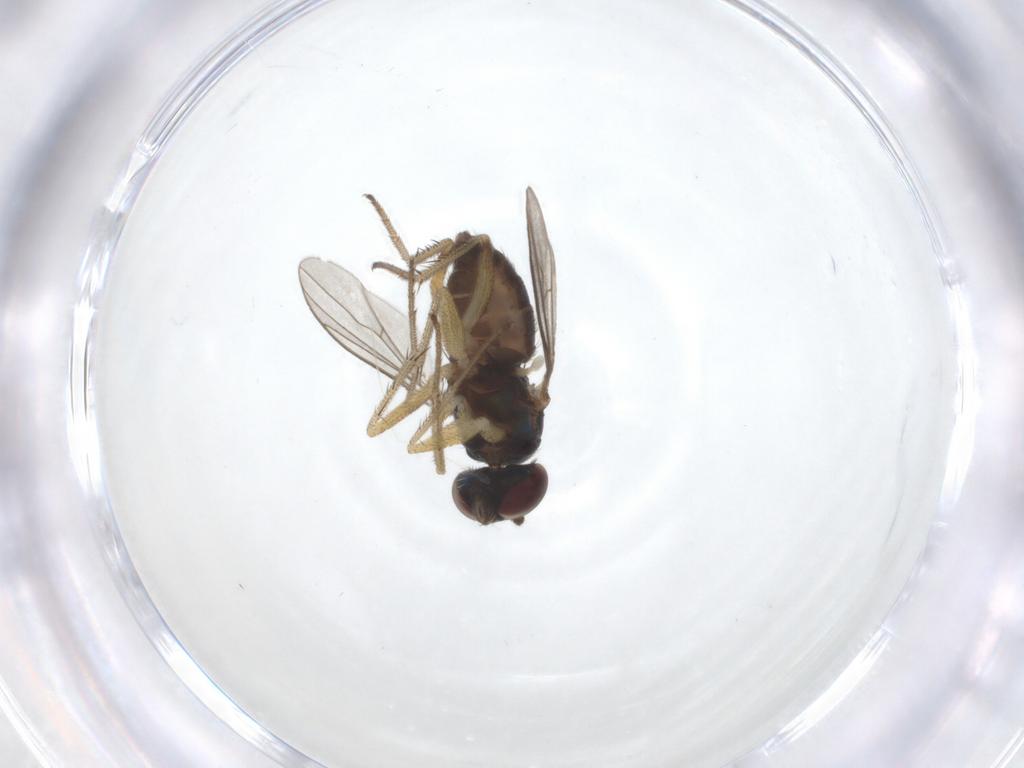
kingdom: Animalia
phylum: Arthropoda
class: Insecta
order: Diptera
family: Dolichopodidae
